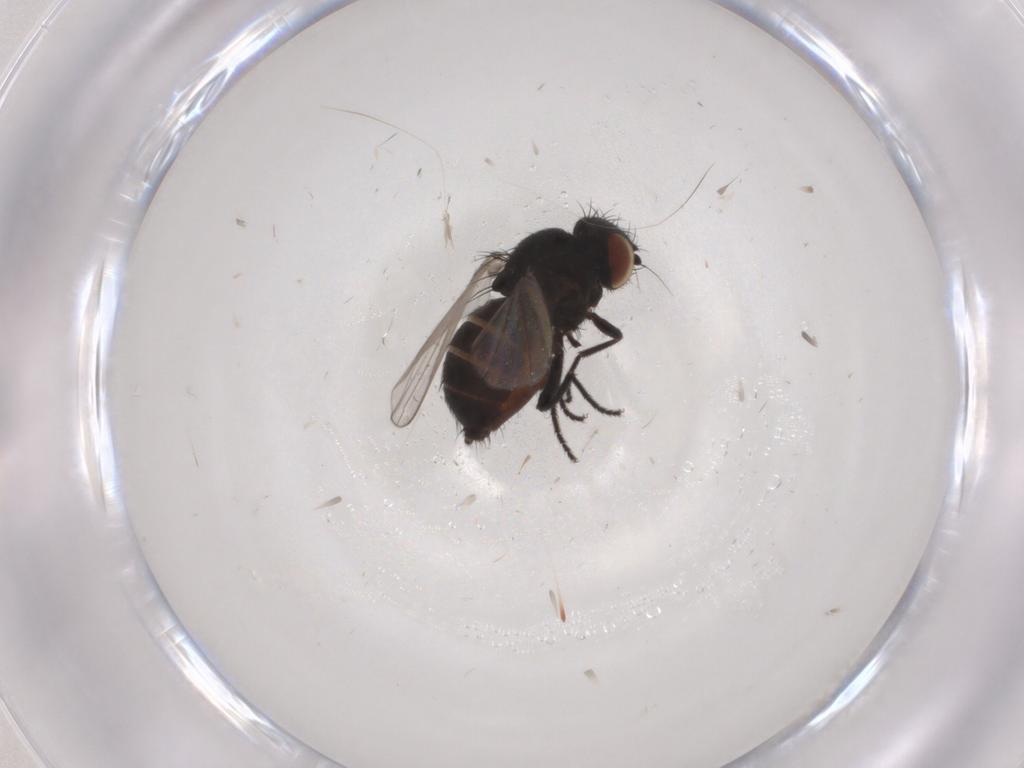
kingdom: Animalia
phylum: Arthropoda
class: Insecta
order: Diptera
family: Milichiidae
